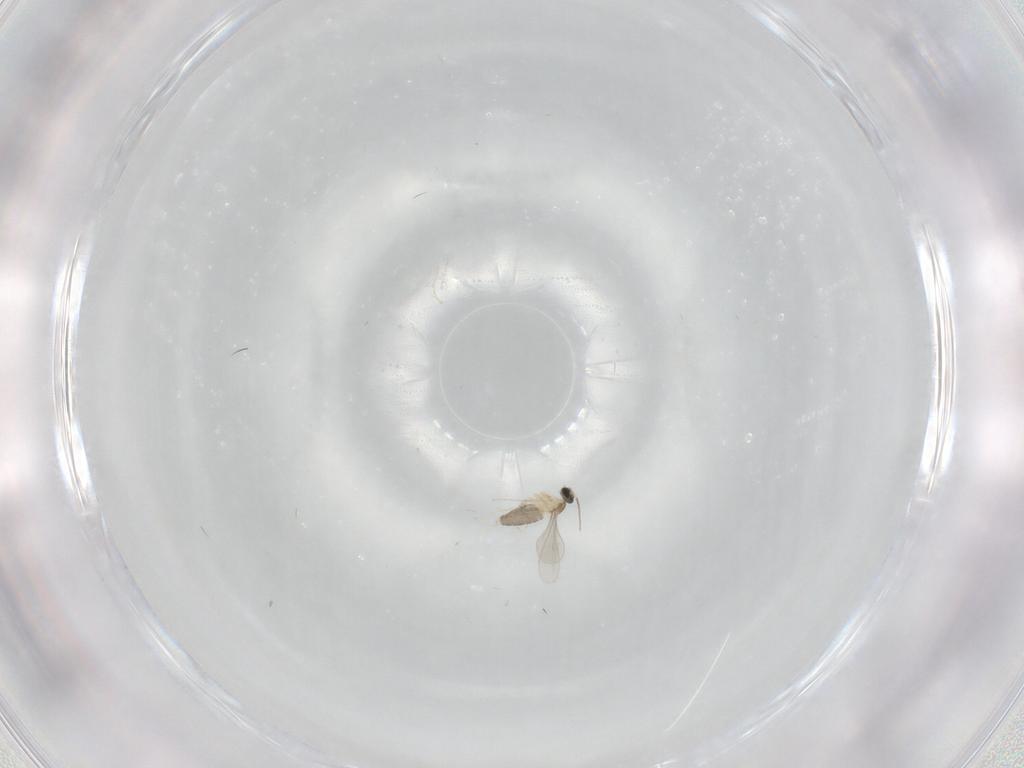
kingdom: Animalia
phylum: Arthropoda
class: Insecta
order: Diptera
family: Cecidomyiidae
